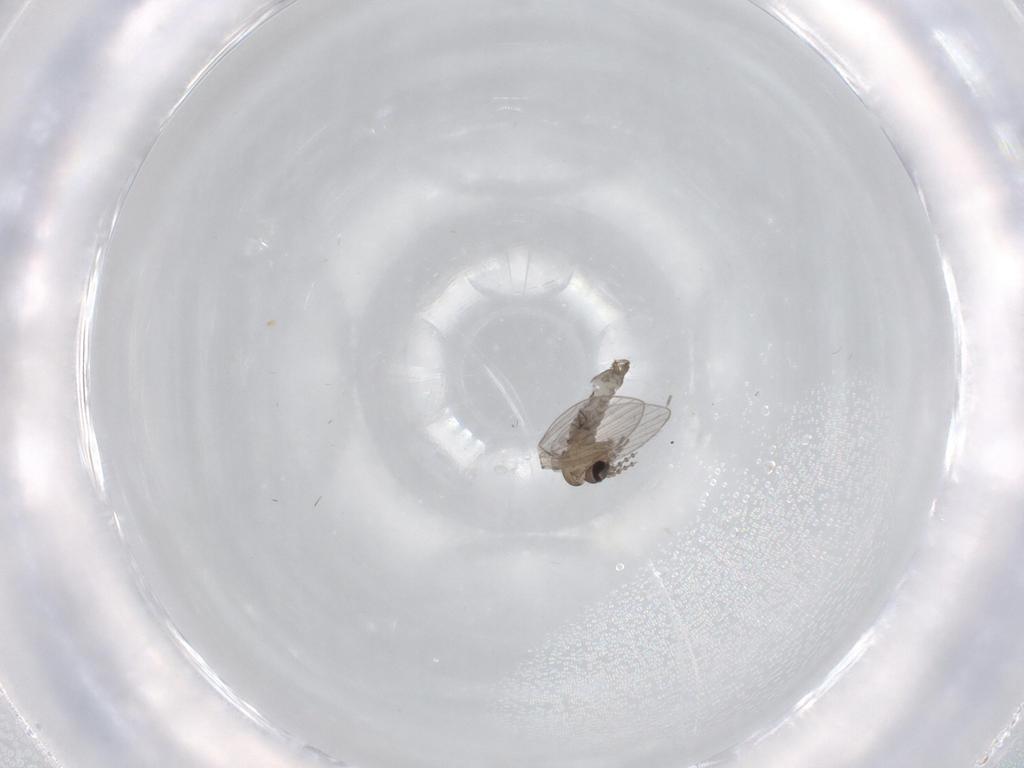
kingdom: Animalia
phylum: Arthropoda
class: Insecta
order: Diptera
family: Psychodidae
